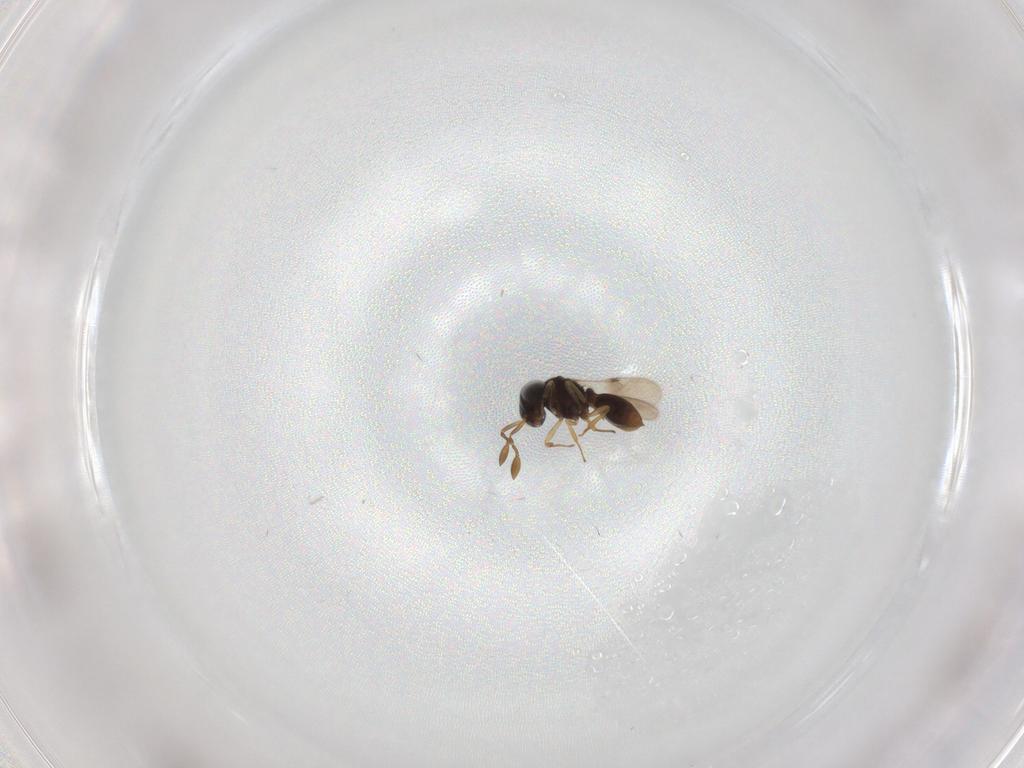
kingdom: Animalia
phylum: Arthropoda
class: Insecta
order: Hymenoptera
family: Scelionidae
